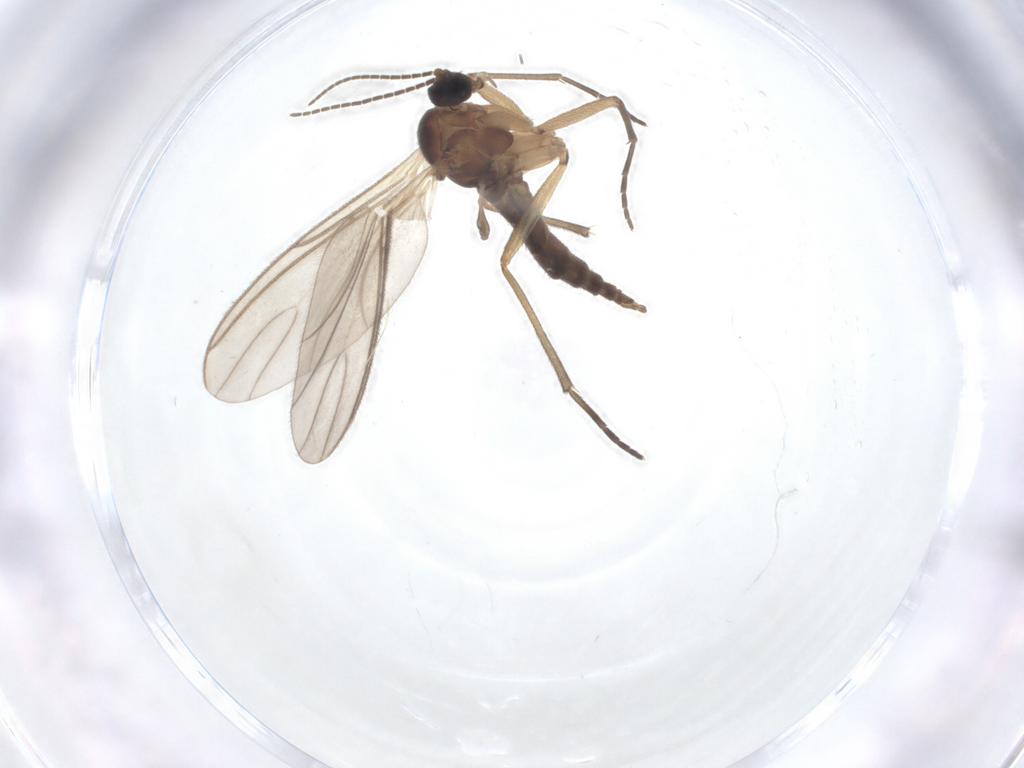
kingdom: Animalia
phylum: Arthropoda
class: Insecta
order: Diptera
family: Sciaridae
